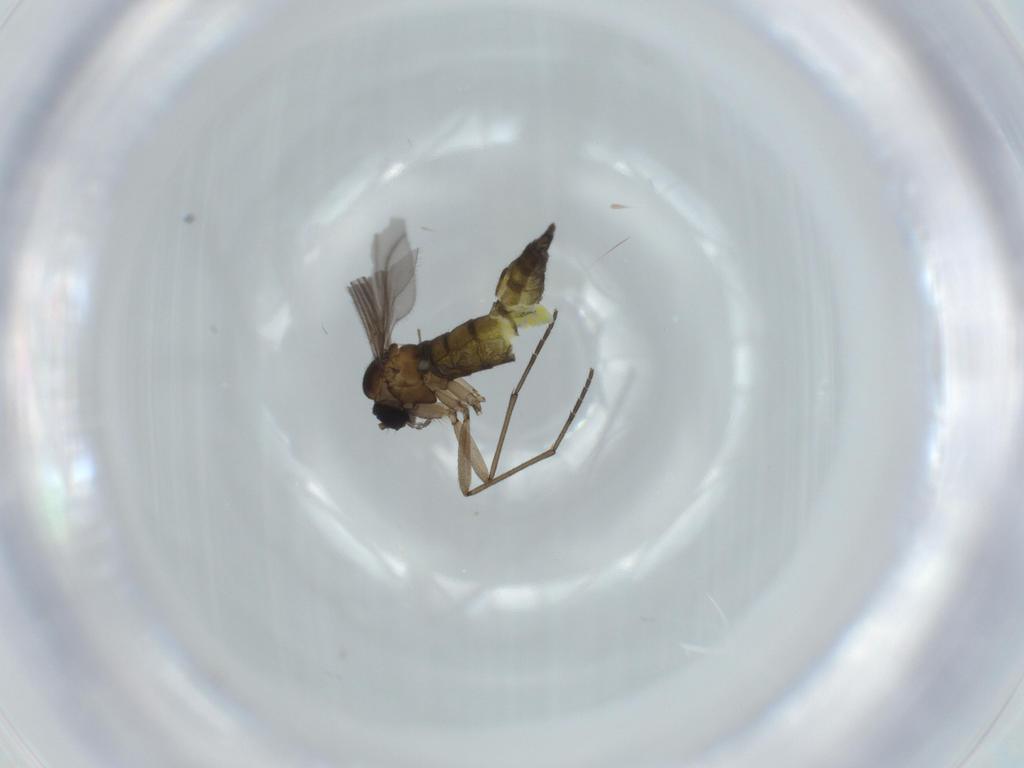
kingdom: Animalia
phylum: Arthropoda
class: Insecta
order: Diptera
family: Sciaridae
